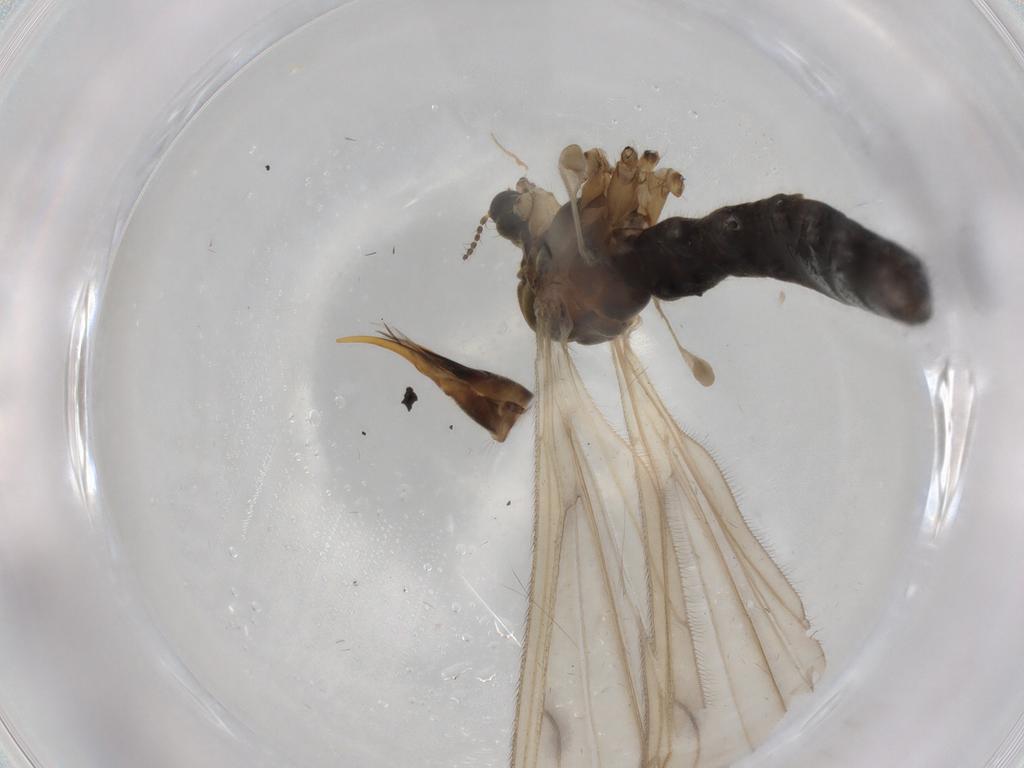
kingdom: Animalia
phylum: Arthropoda
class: Insecta
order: Diptera
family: Limoniidae
